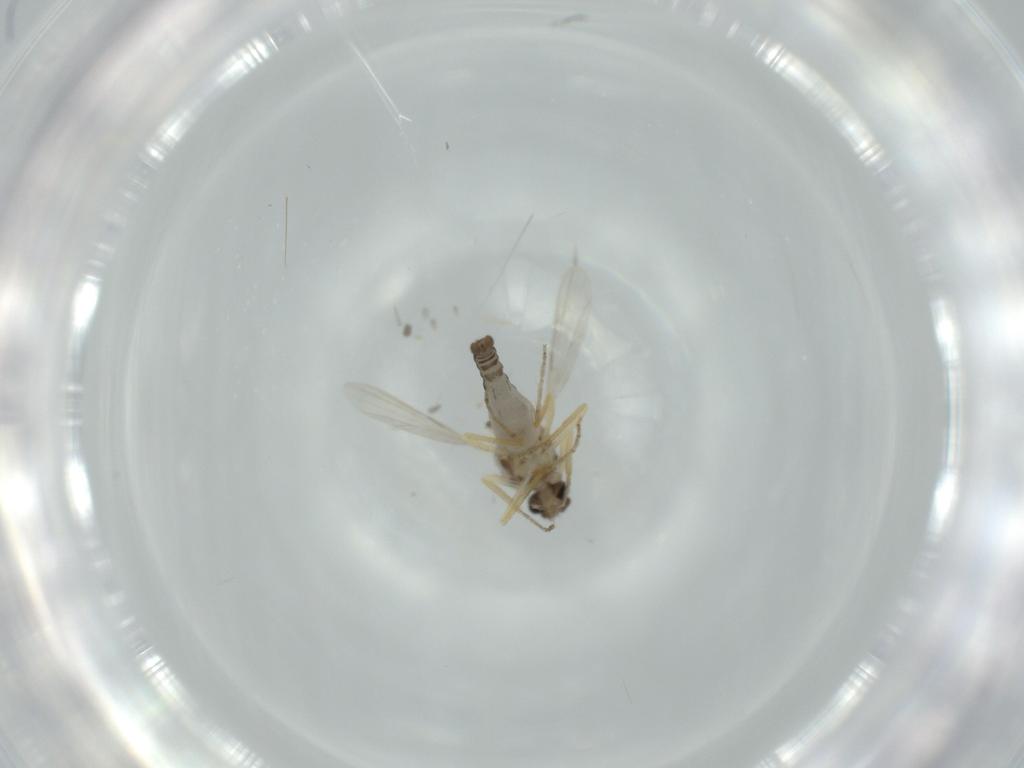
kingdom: Animalia
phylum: Arthropoda
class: Insecta
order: Diptera
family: Ceratopogonidae
